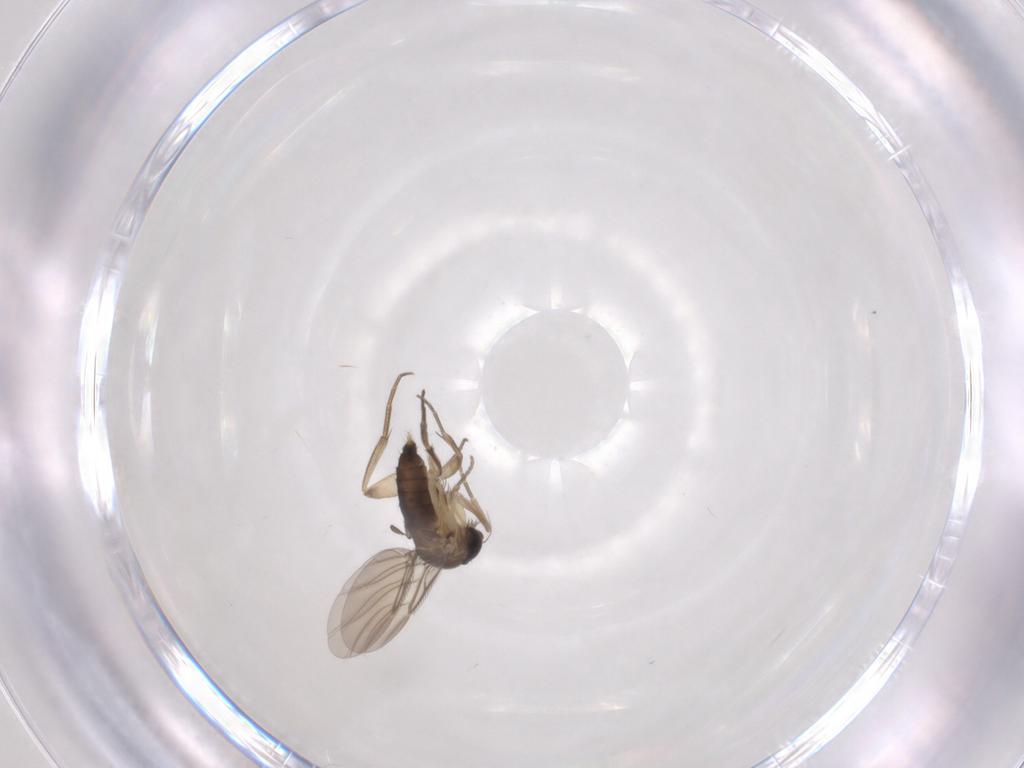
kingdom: Animalia
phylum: Arthropoda
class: Insecta
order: Diptera
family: Phoridae
